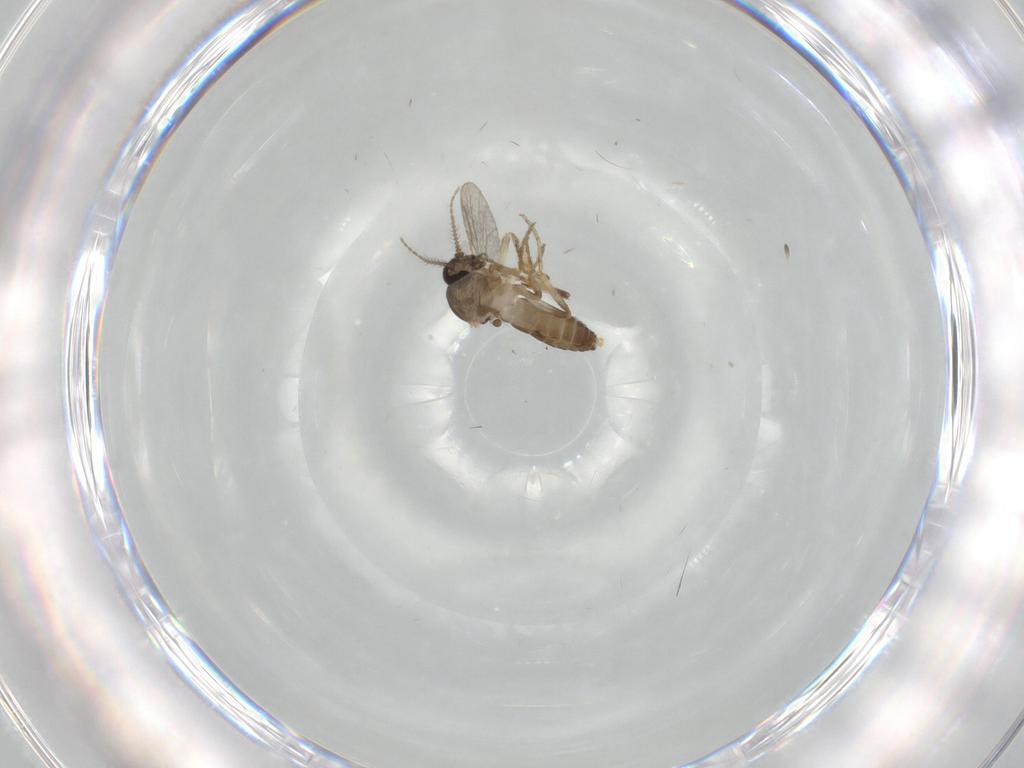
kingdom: Animalia
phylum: Arthropoda
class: Insecta
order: Diptera
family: Ceratopogonidae
